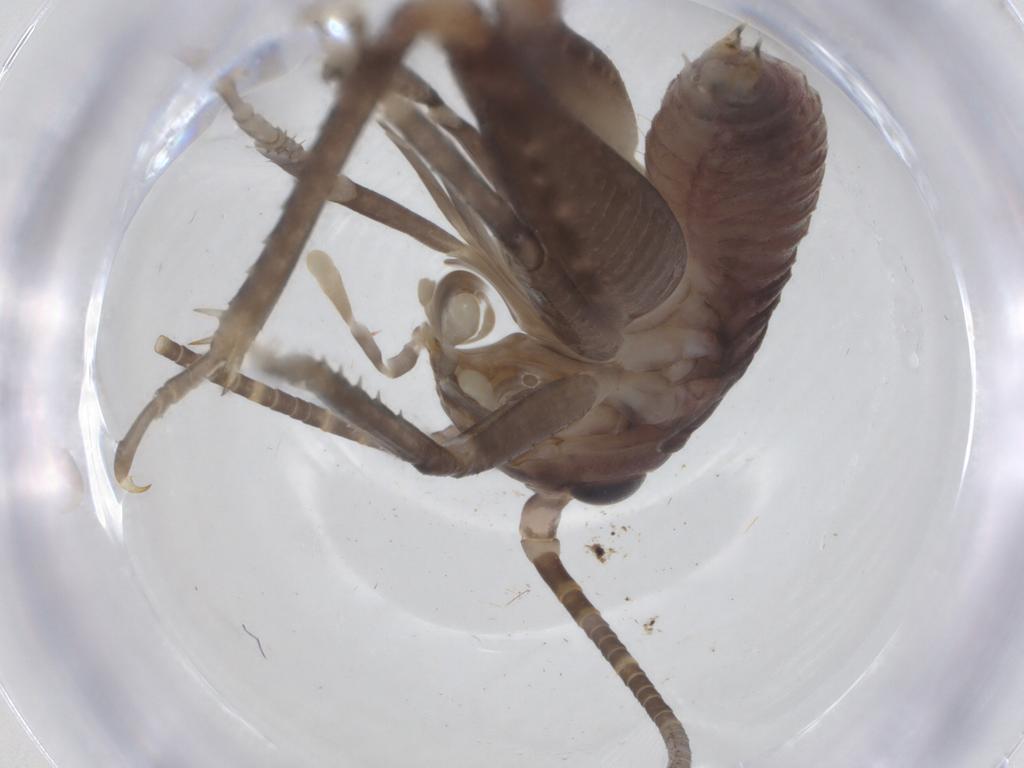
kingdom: Animalia
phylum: Arthropoda
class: Insecta
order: Orthoptera
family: Anostostomatidae
